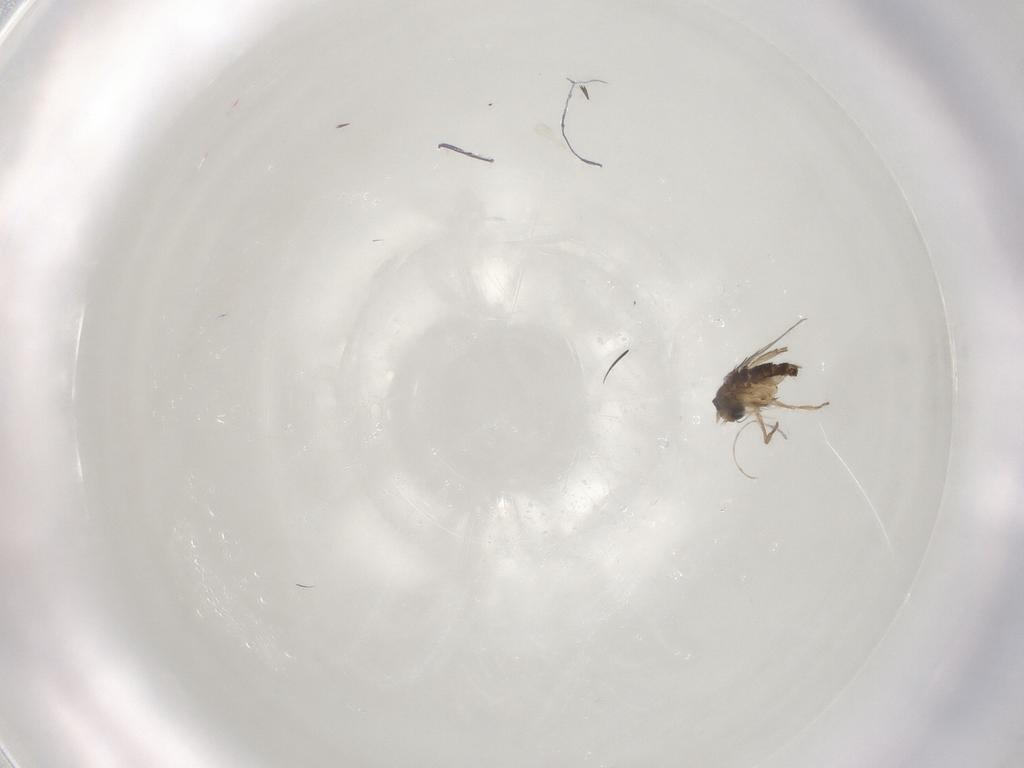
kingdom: Animalia
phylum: Arthropoda
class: Insecta
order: Diptera
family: Phoridae
